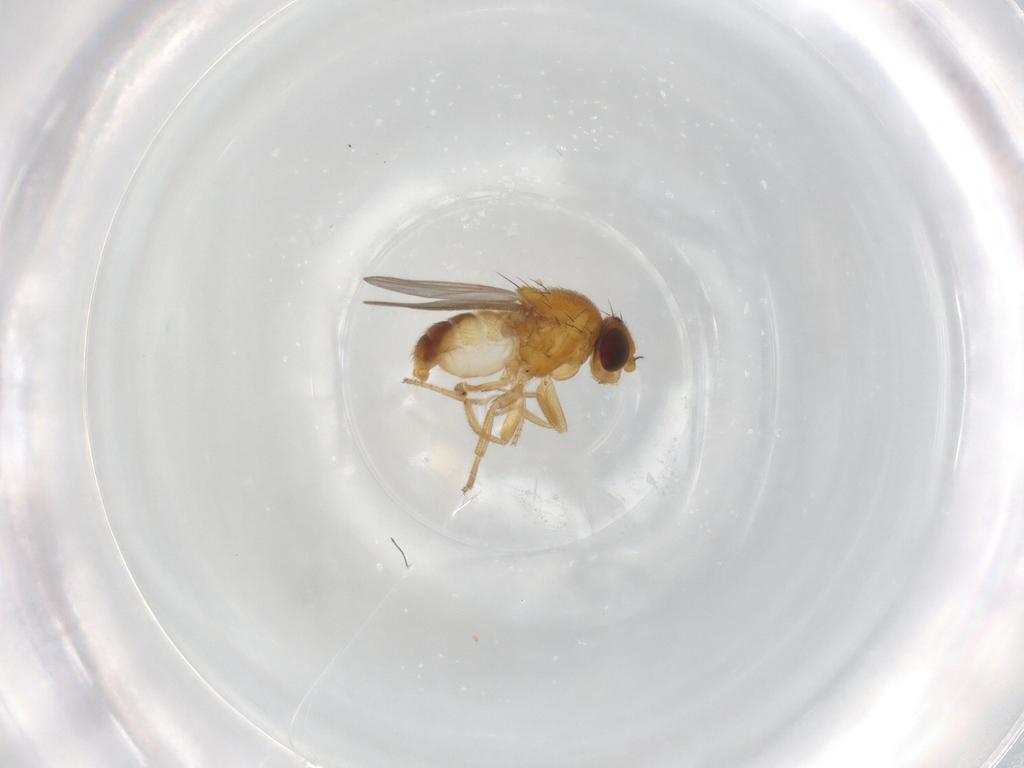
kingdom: Animalia
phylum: Arthropoda
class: Insecta
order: Diptera
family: Chloropidae
